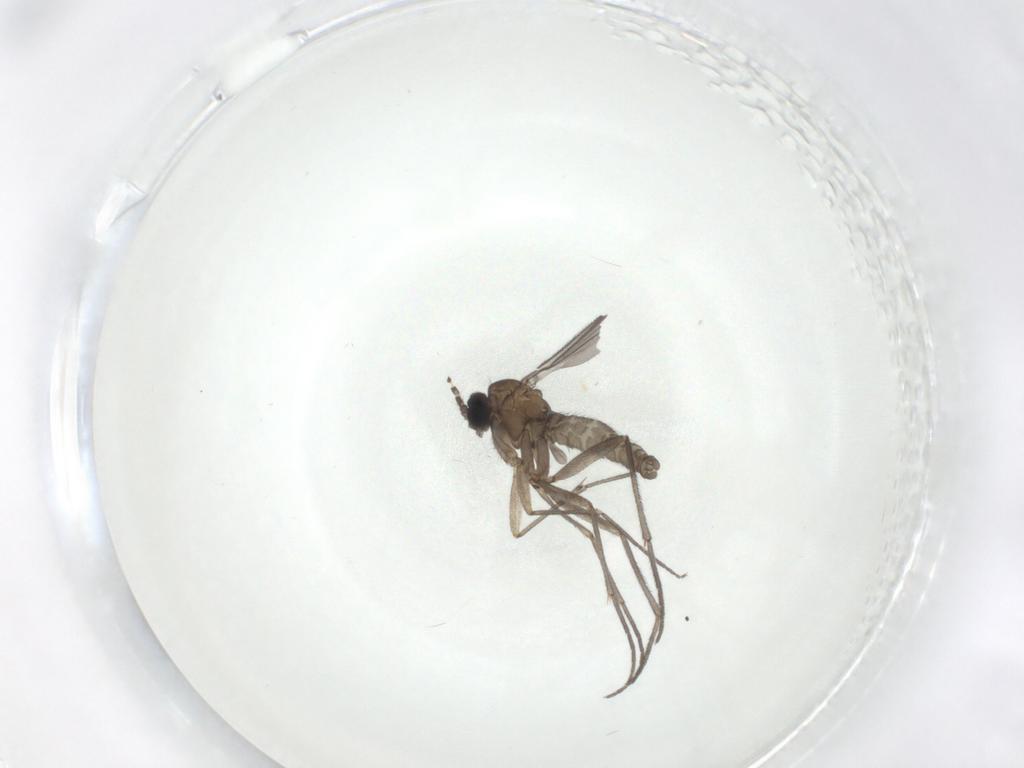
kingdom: Animalia
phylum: Arthropoda
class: Insecta
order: Diptera
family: Sciaridae
